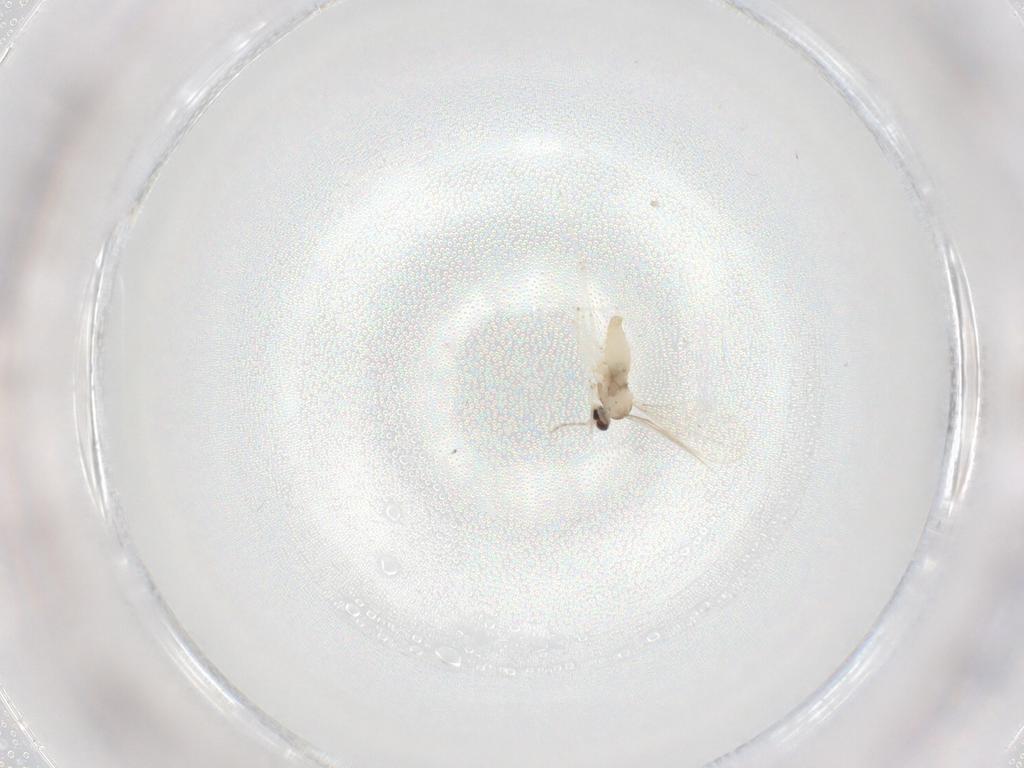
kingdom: Animalia
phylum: Arthropoda
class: Insecta
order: Diptera
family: Cecidomyiidae
